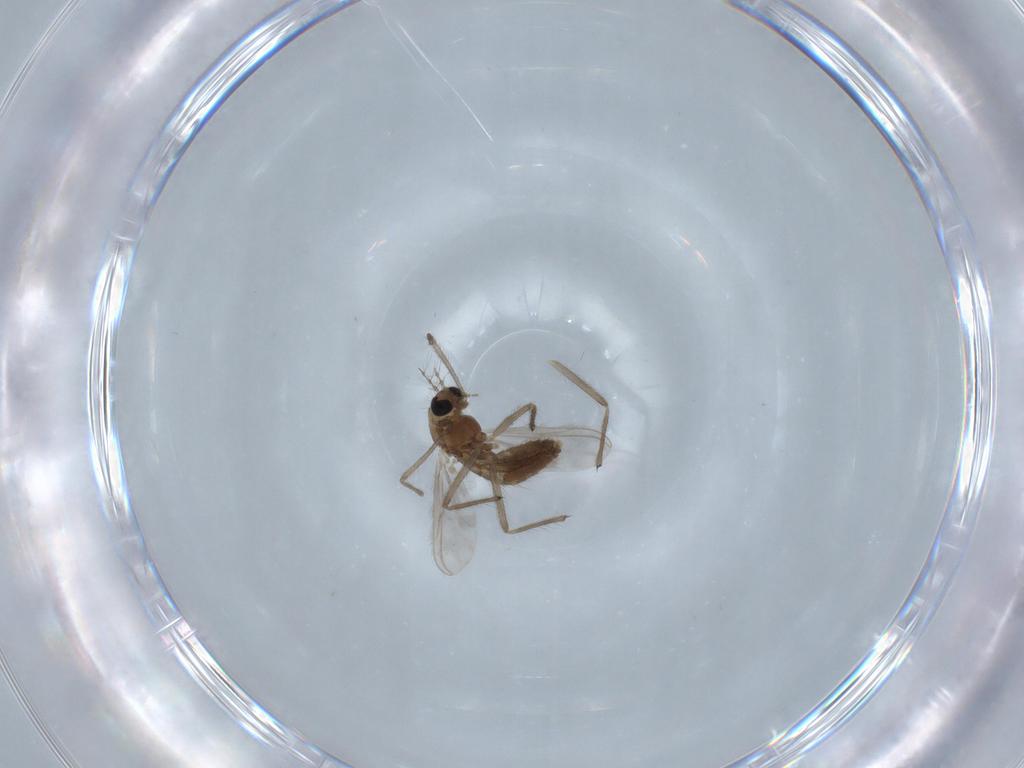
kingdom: Animalia
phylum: Arthropoda
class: Insecta
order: Diptera
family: Chironomidae
